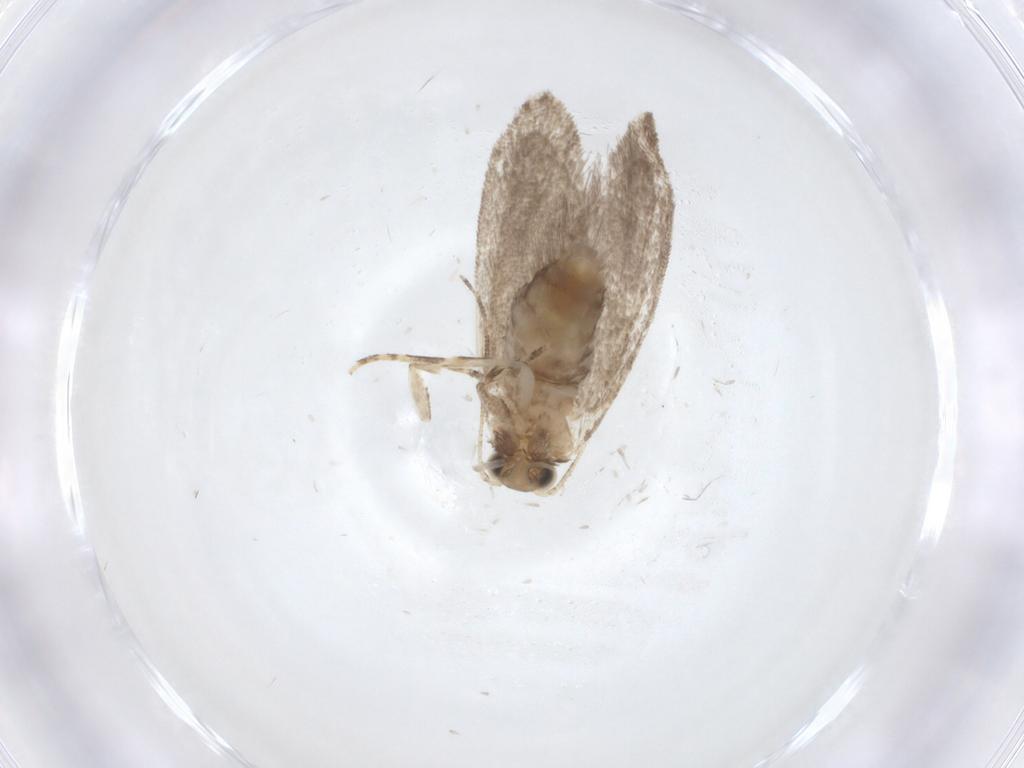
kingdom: Animalia
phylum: Arthropoda
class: Insecta
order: Lepidoptera
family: Tineidae
